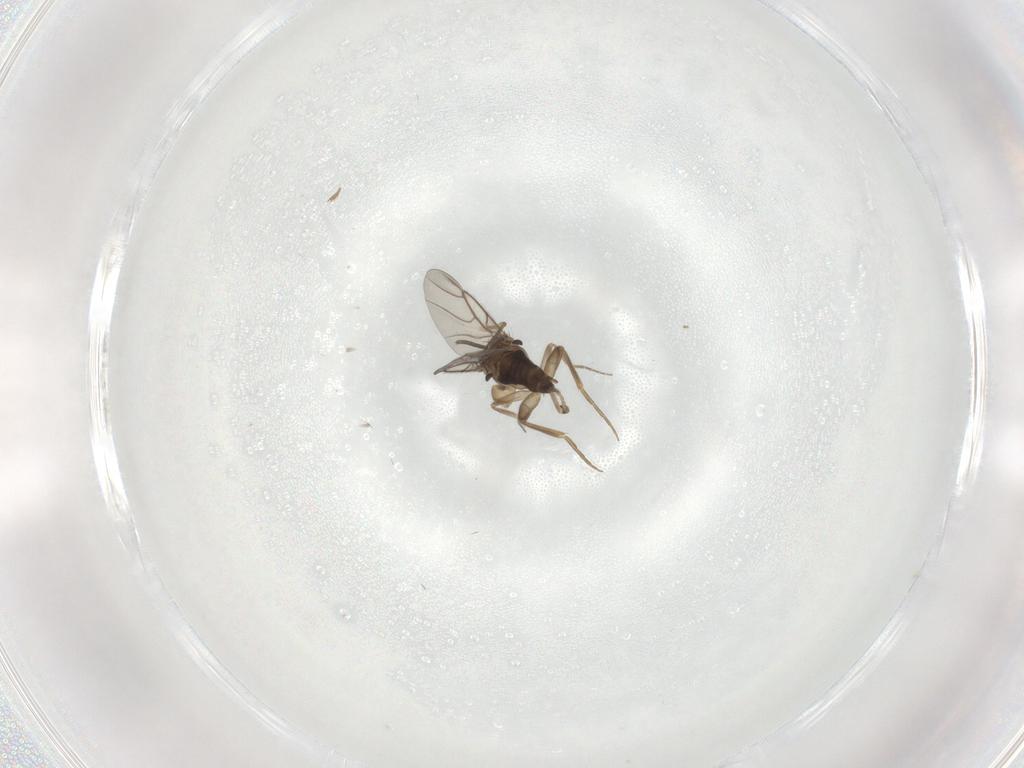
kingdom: Animalia
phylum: Arthropoda
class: Insecta
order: Diptera
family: Phoridae
